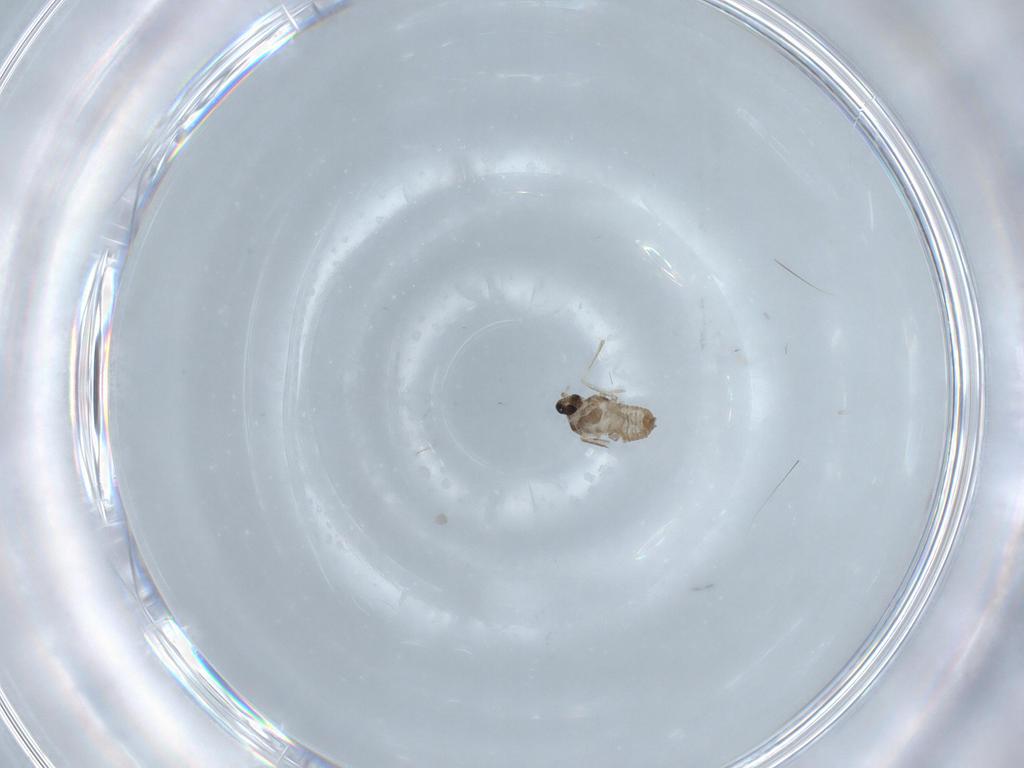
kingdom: Animalia
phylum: Arthropoda
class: Insecta
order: Diptera
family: Cecidomyiidae
